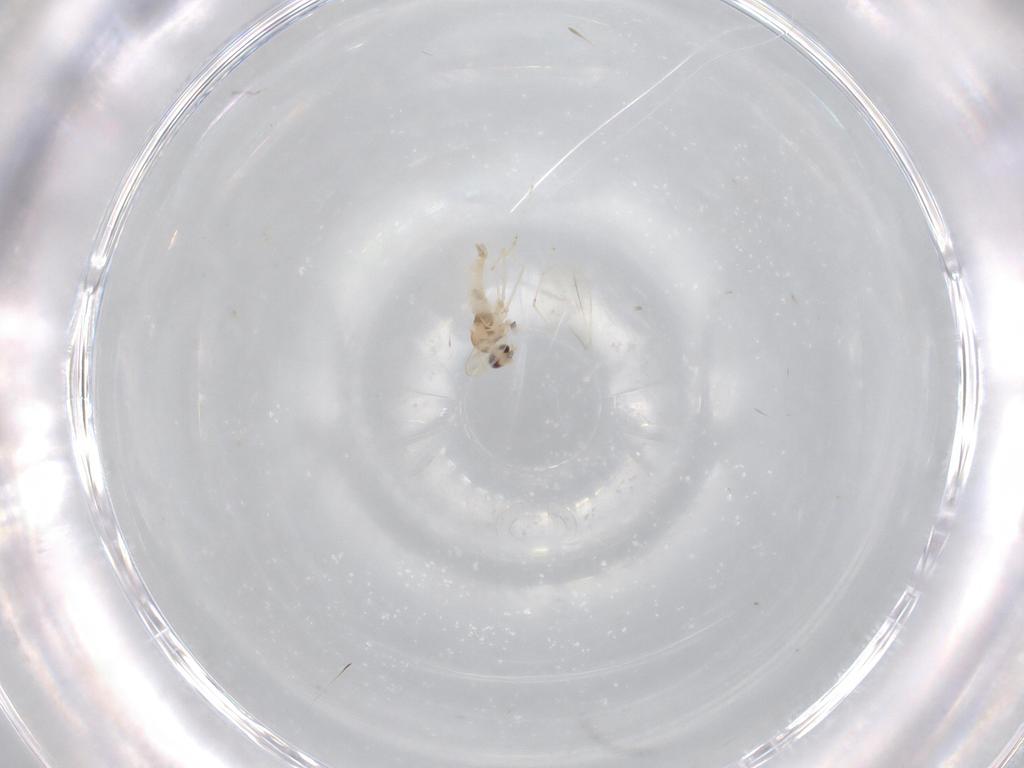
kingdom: Animalia
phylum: Arthropoda
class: Insecta
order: Diptera
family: Cecidomyiidae
